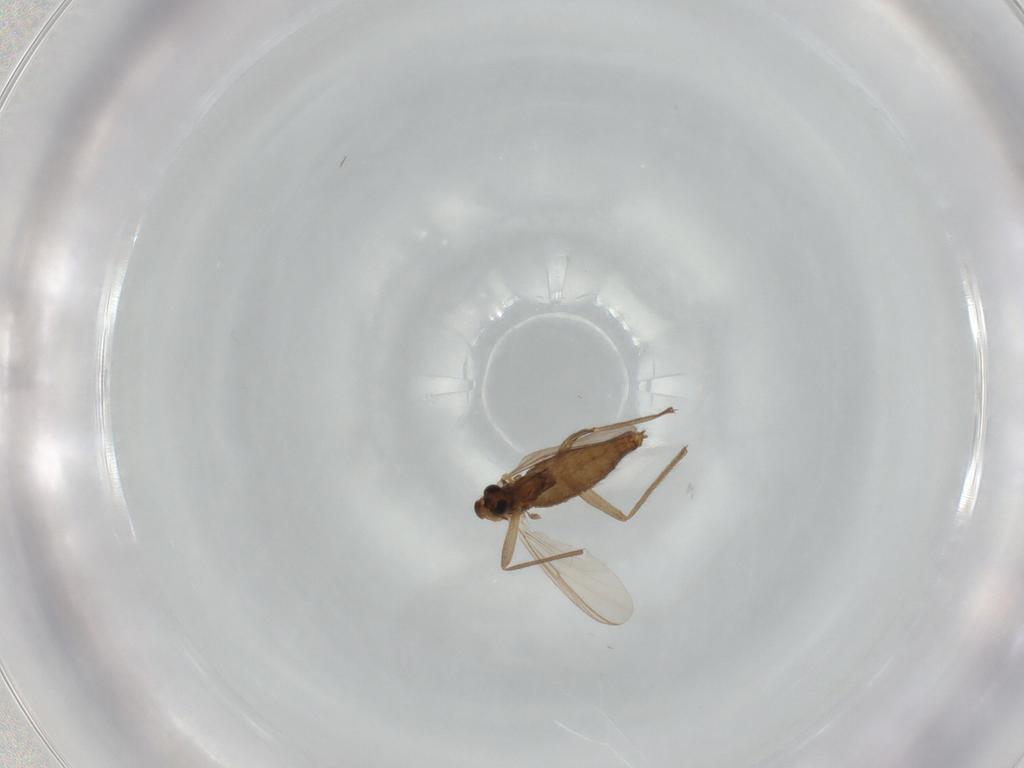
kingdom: Animalia
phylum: Arthropoda
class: Insecta
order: Diptera
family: Chironomidae
